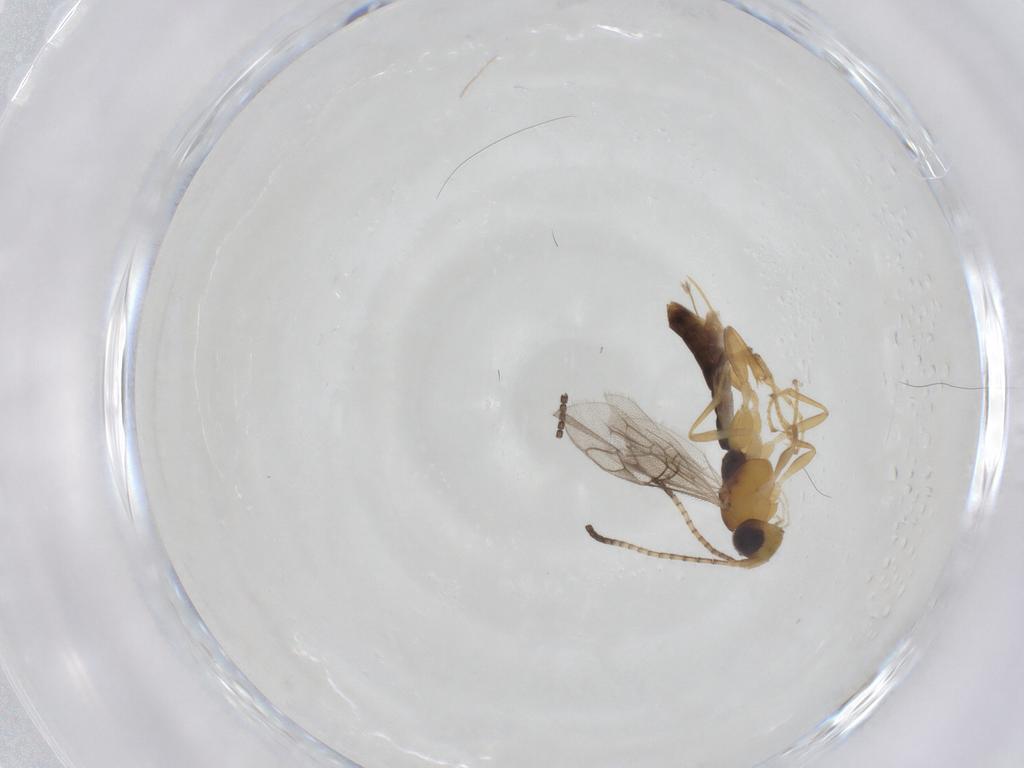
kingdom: Animalia
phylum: Arthropoda
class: Insecta
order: Hymenoptera
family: Ichneumonidae
